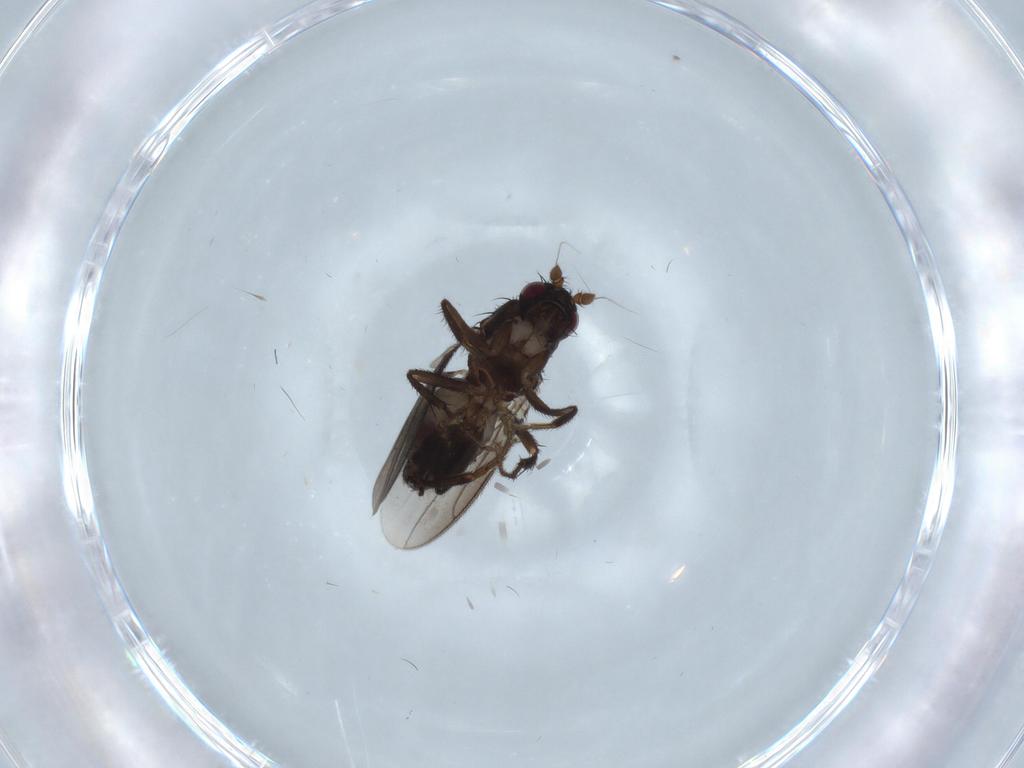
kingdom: Animalia
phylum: Arthropoda
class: Insecta
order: Diptera
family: Sphaeroceridae
